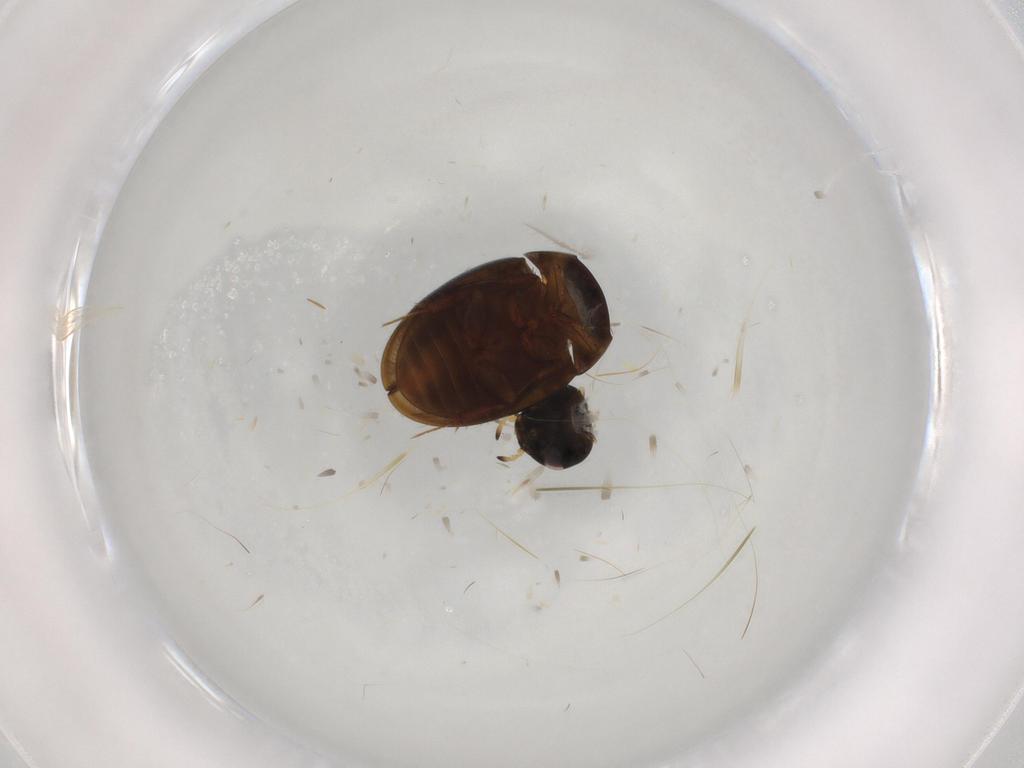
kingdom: Animalia
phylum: Arthropoda
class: Insecta
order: Coleoptera
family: Hydrophilidae
